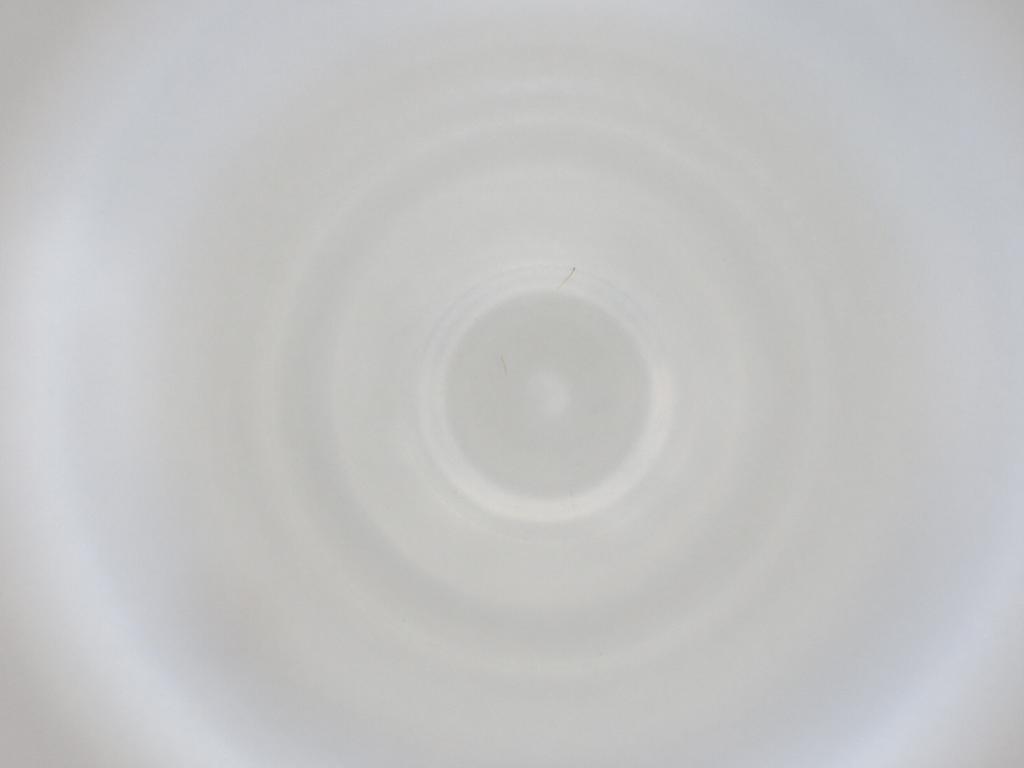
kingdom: Animalia
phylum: Arthropoda
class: Insecta
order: Diptera
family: Cecidomyiidae
